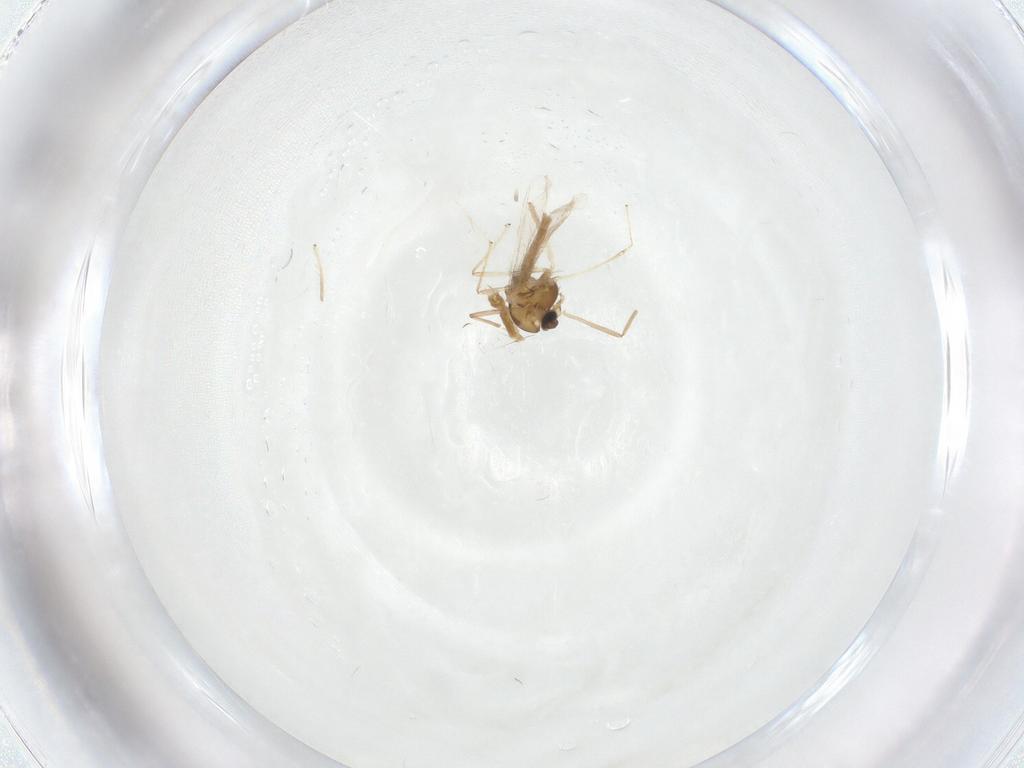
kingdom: Animalia
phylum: Arthropoda
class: Insecta
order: Diptera
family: Chironomidae
